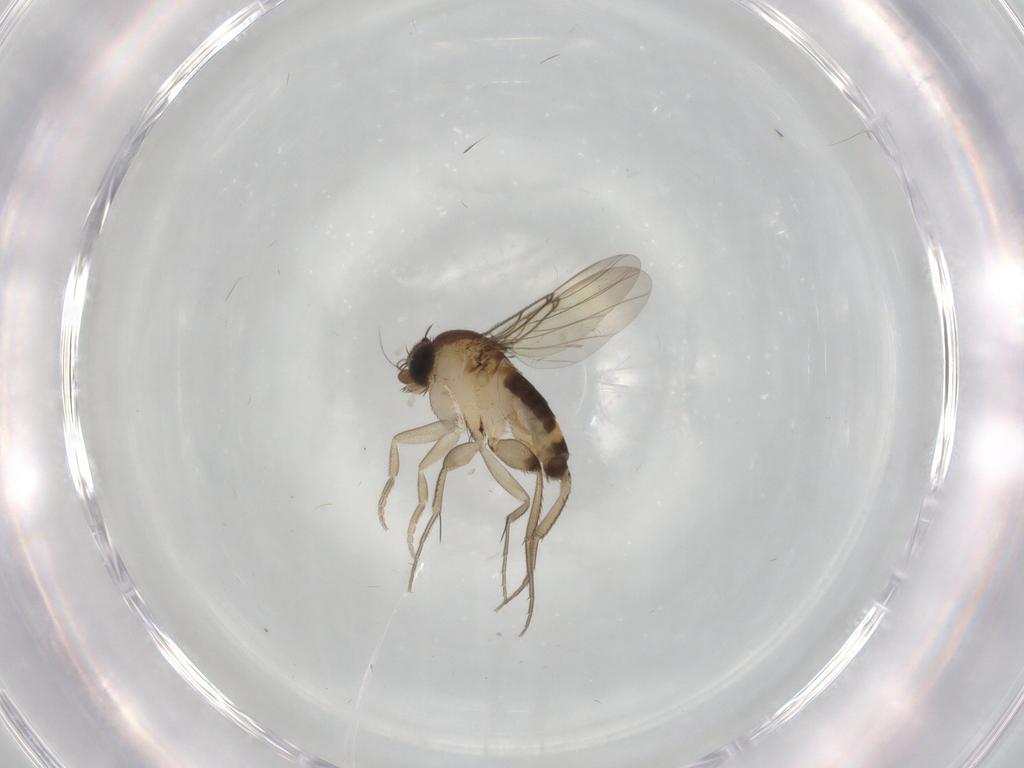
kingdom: Animalia
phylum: Arthropoda
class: Insecta
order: Diptera
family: Phoridae
